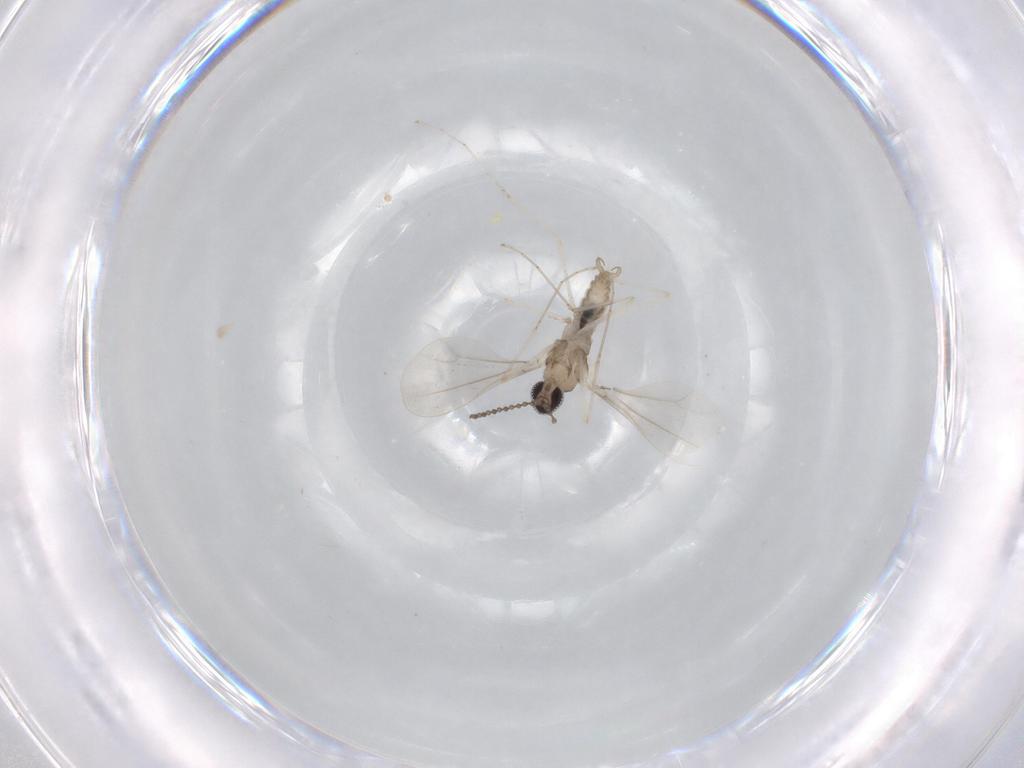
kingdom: Animalia
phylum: Arthropoda
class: Insecta
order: Diptera
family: Cecidomyiidae
